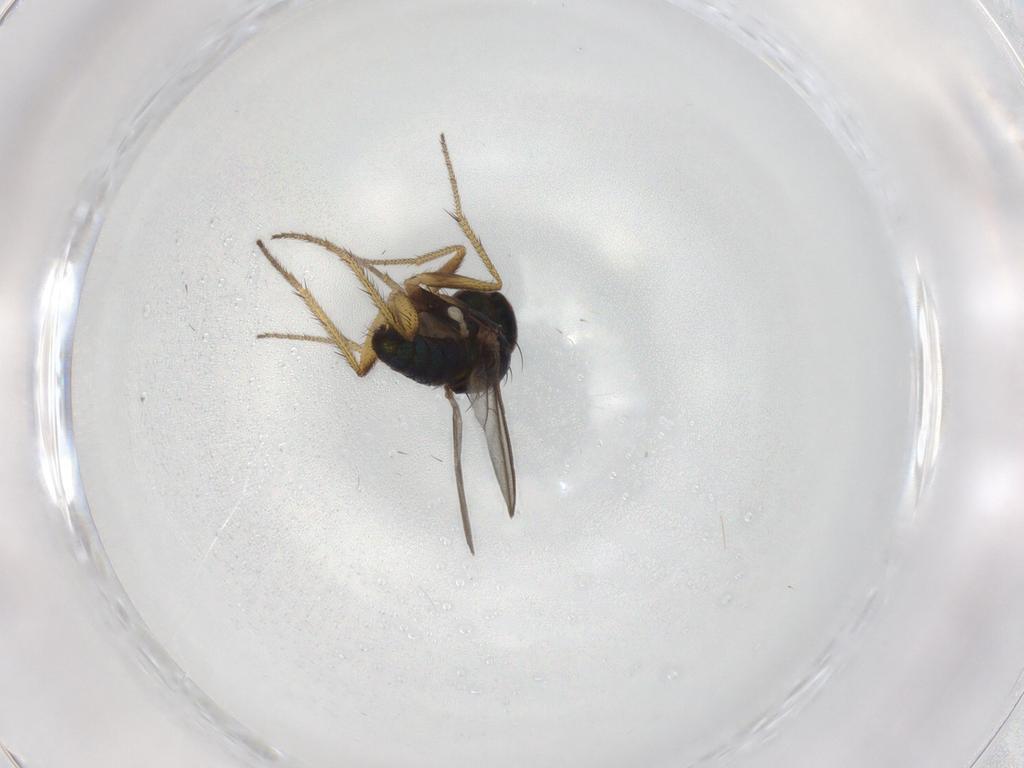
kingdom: Animalia
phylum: Arthropoda
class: Insecta
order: Diptera
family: Dolichopodidae
